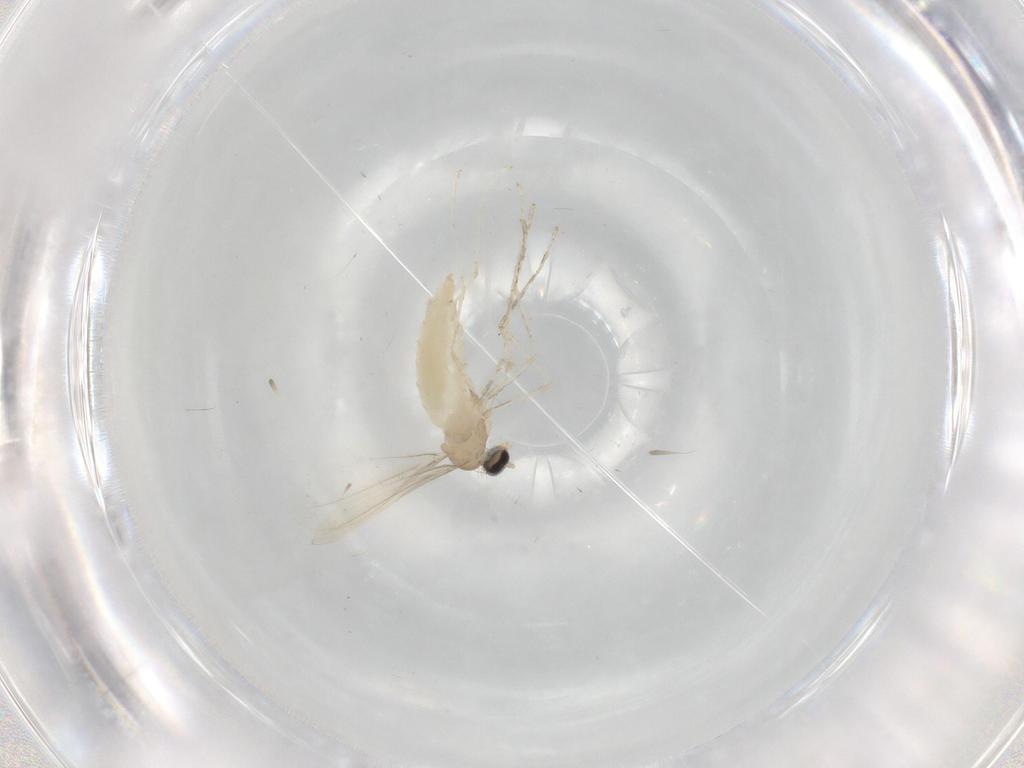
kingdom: Animalia
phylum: Arthropoda
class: Insecta
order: Diptera
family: Cecidomyiidae
